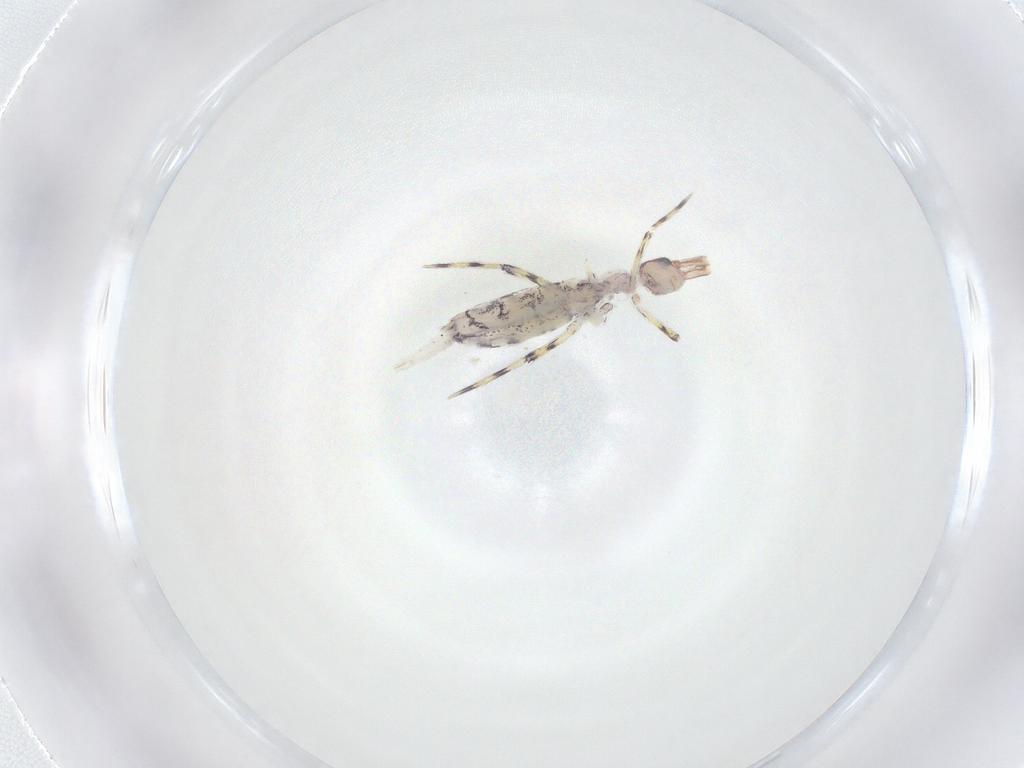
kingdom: Animalia
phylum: Arthropoda
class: Collembola
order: Entomobryomorpha
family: Entomobryidae
